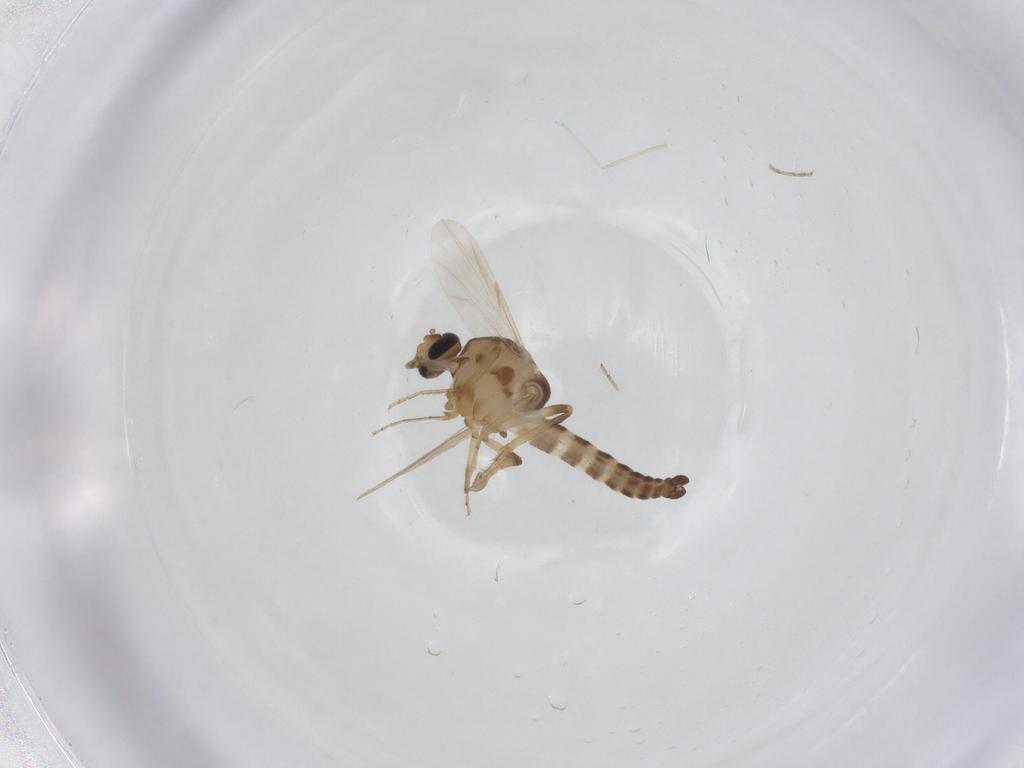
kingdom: Animalia
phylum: Arthropoda
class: Insecta
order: Diptera
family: Ceratopogonidae
